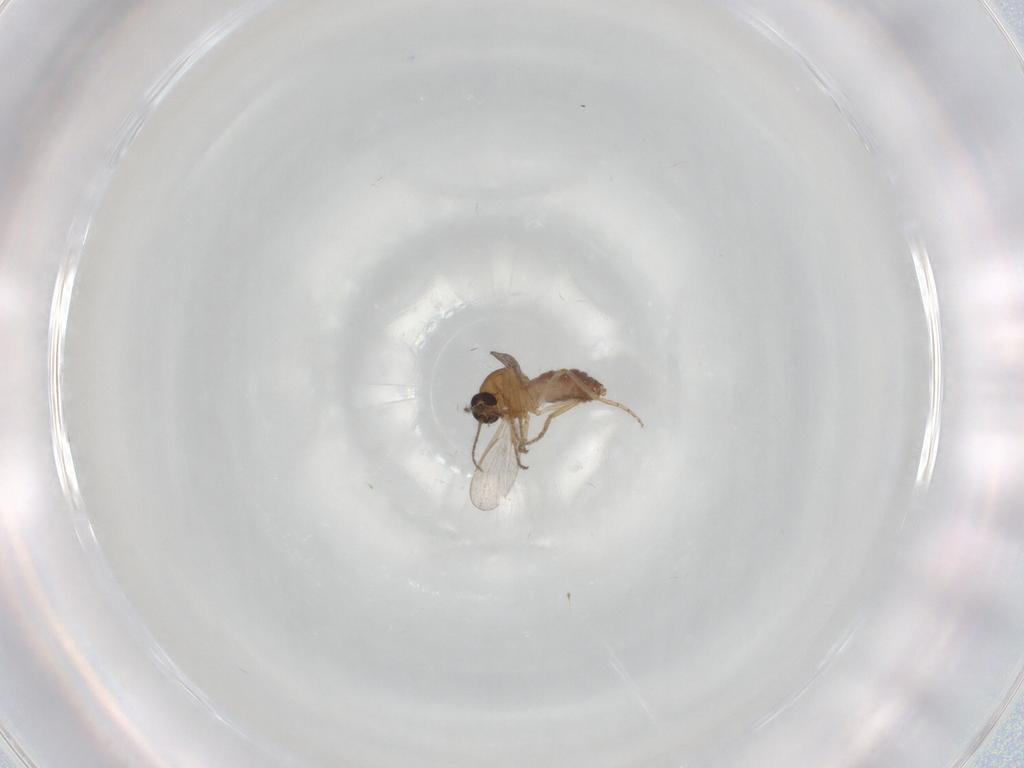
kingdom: Animalia
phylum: Arthropoda
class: Insecta
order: Diptera
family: Ceratopogonidae
